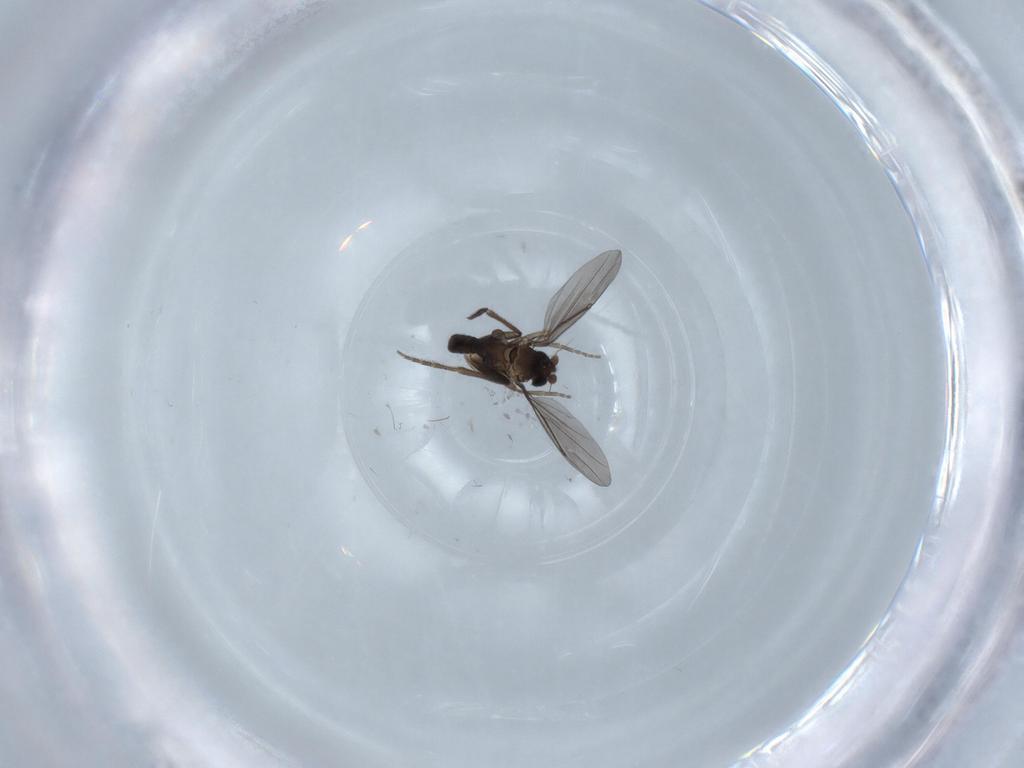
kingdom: Animalia
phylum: Arthropoda
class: Insecta
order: Diptera
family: Phoridae
